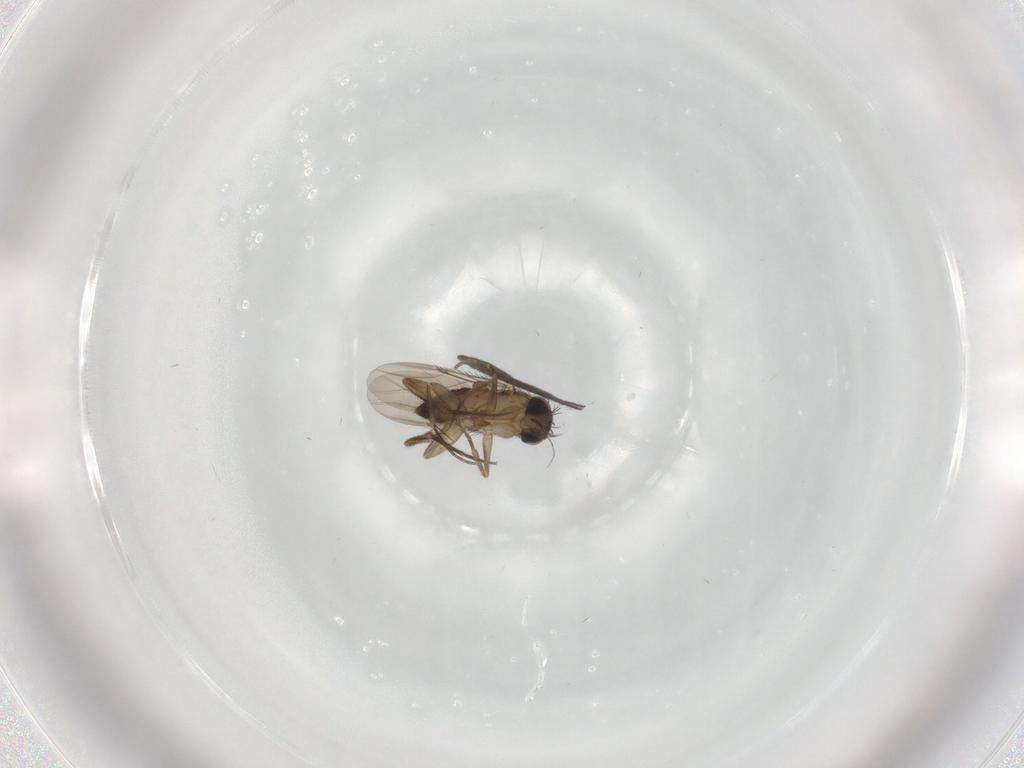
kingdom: Animalia
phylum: Arthropoda
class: Insecta
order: Diptera
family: Phoridae
